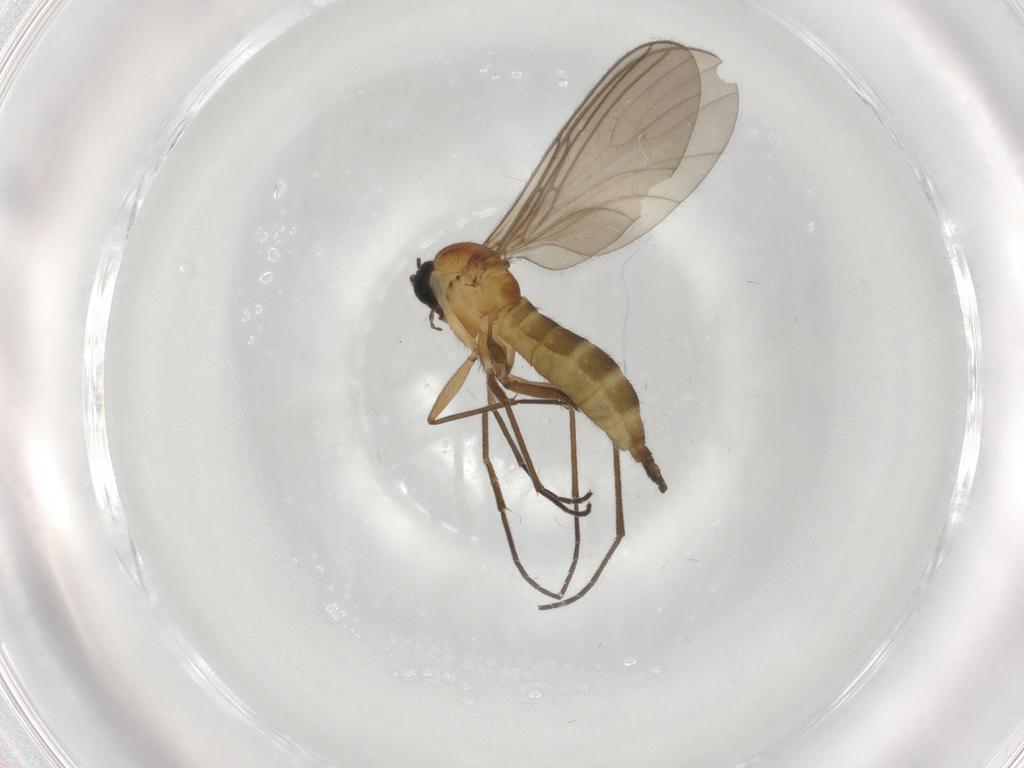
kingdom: Animalia
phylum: Arthropoda
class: Insecta
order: Diptera
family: Sciaridae
